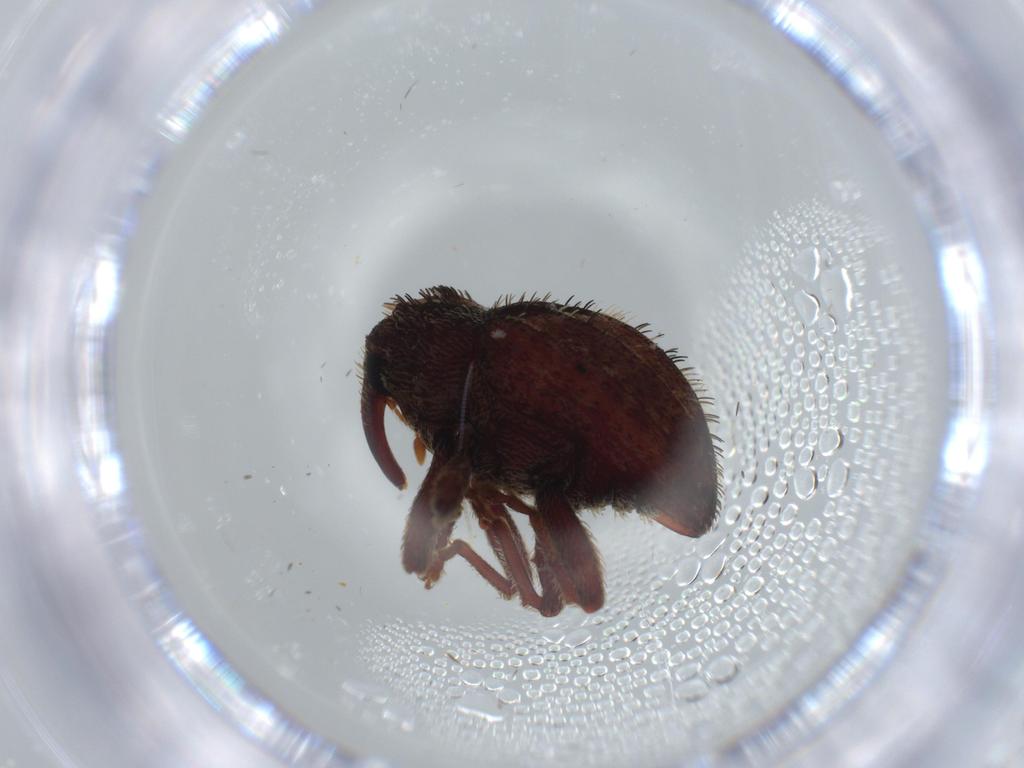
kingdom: Animalia
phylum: Arthropoda
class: Insecta
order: Coleoptera
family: Curculionidae
